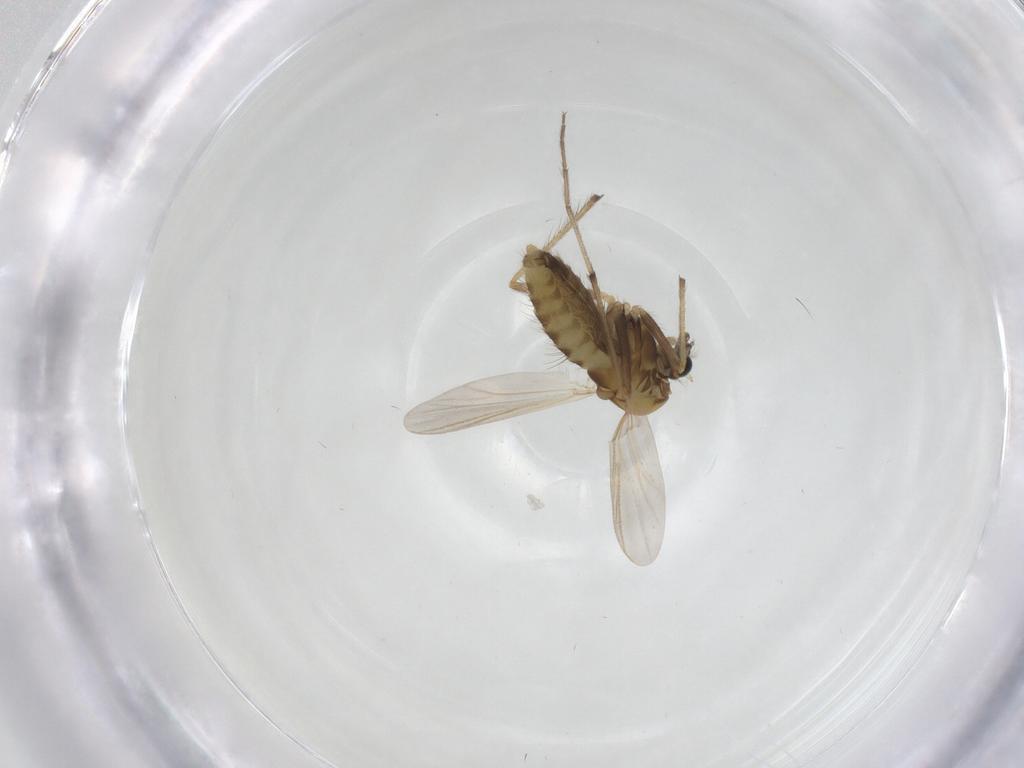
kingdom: Animalia
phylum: Arthropoda
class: Insecta
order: Diptera
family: Chironomidae
